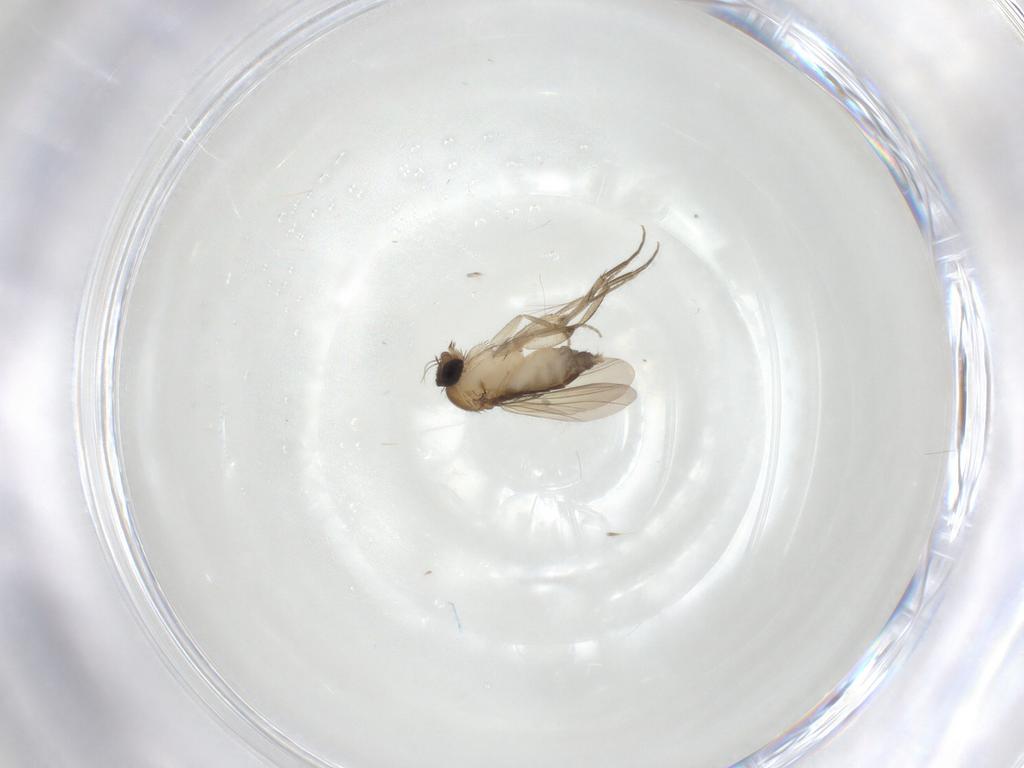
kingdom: Animalia
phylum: Arthropoda
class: Insecta
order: Diptera
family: Phoridae
